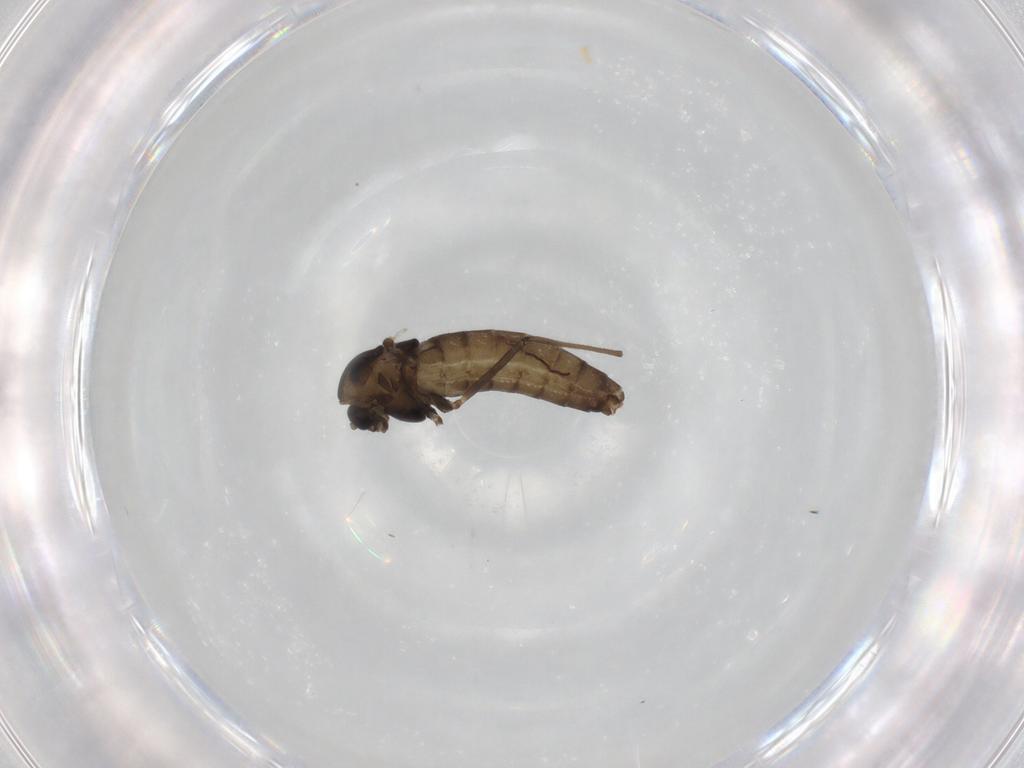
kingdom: Animalia
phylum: Arthropoda
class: Insecta
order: Diptera
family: Chironomidae
